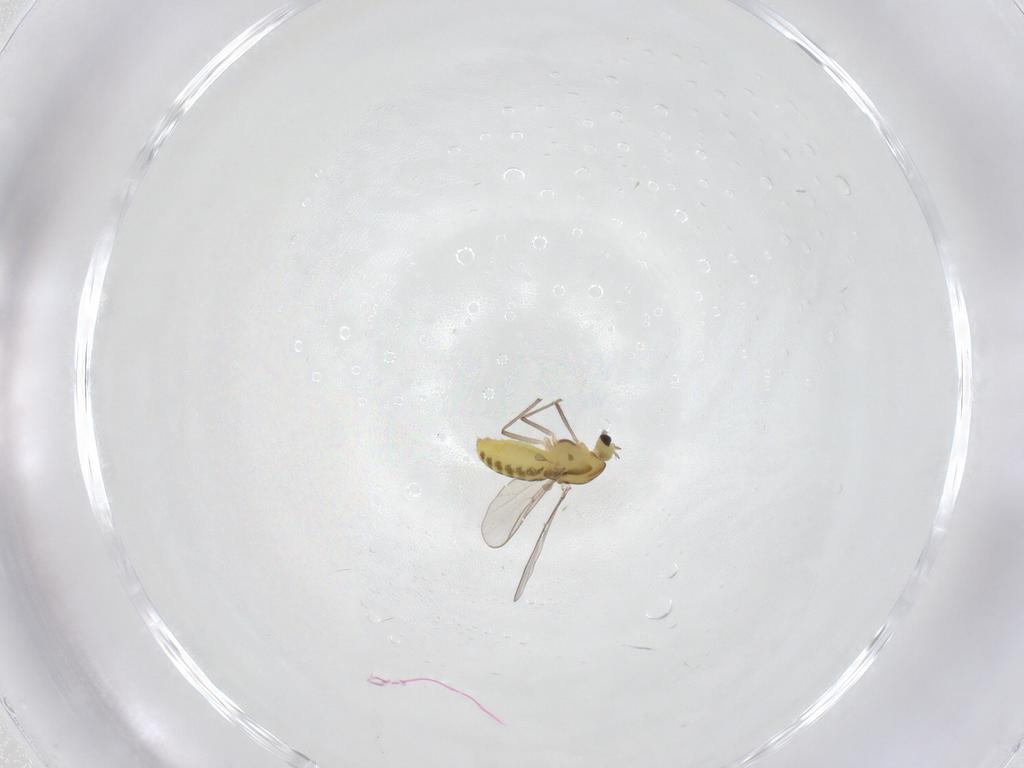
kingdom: Animalia
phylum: Arthropoda
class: Insecta
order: Diptera
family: Chironomidae
